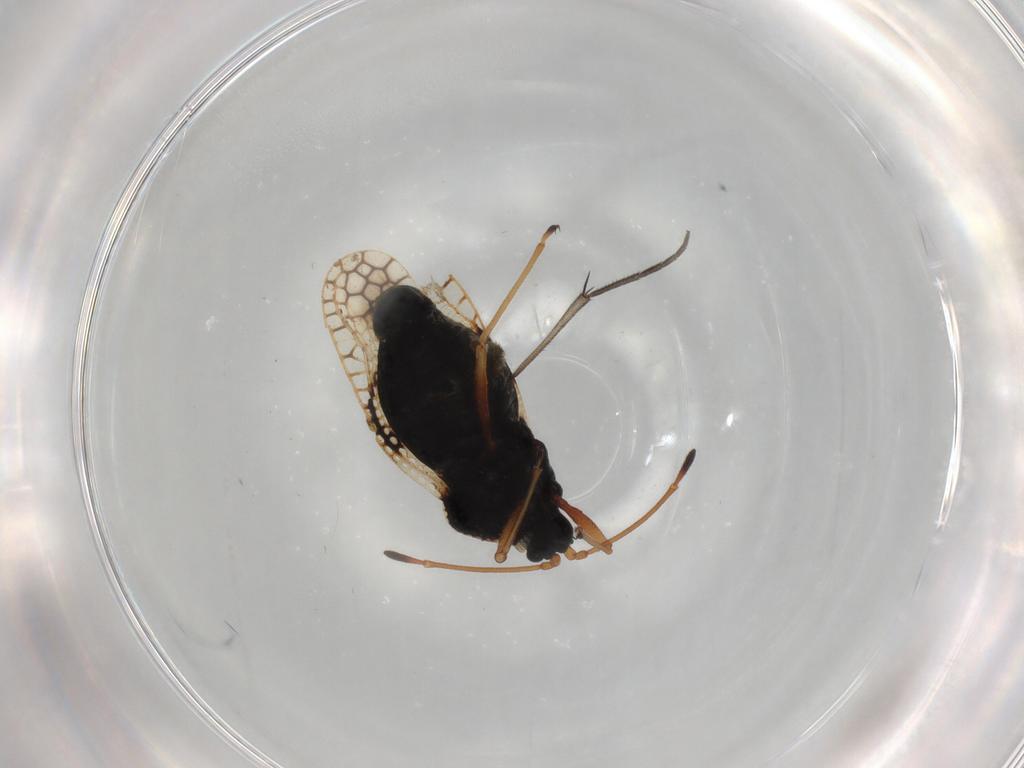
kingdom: Animalia
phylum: Arthropoda
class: Insecta
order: Hemiptera
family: Cicadellidae
